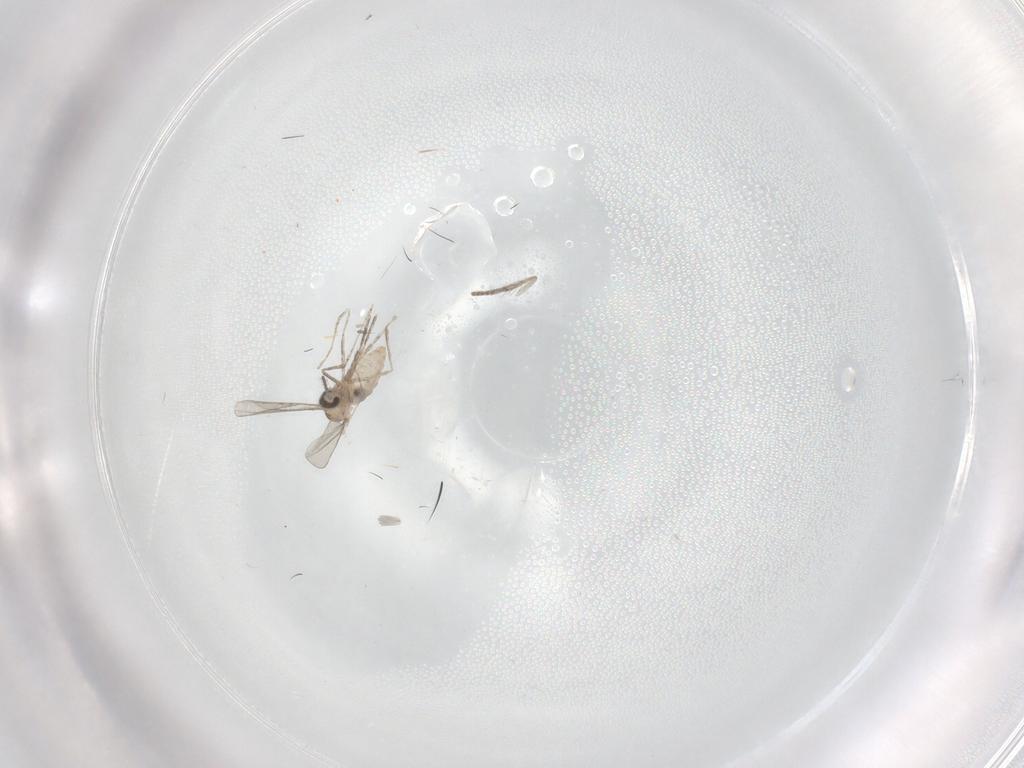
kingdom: Animalia
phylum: Arthropoda
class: Insecta
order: Diptera
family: Psychodidae
